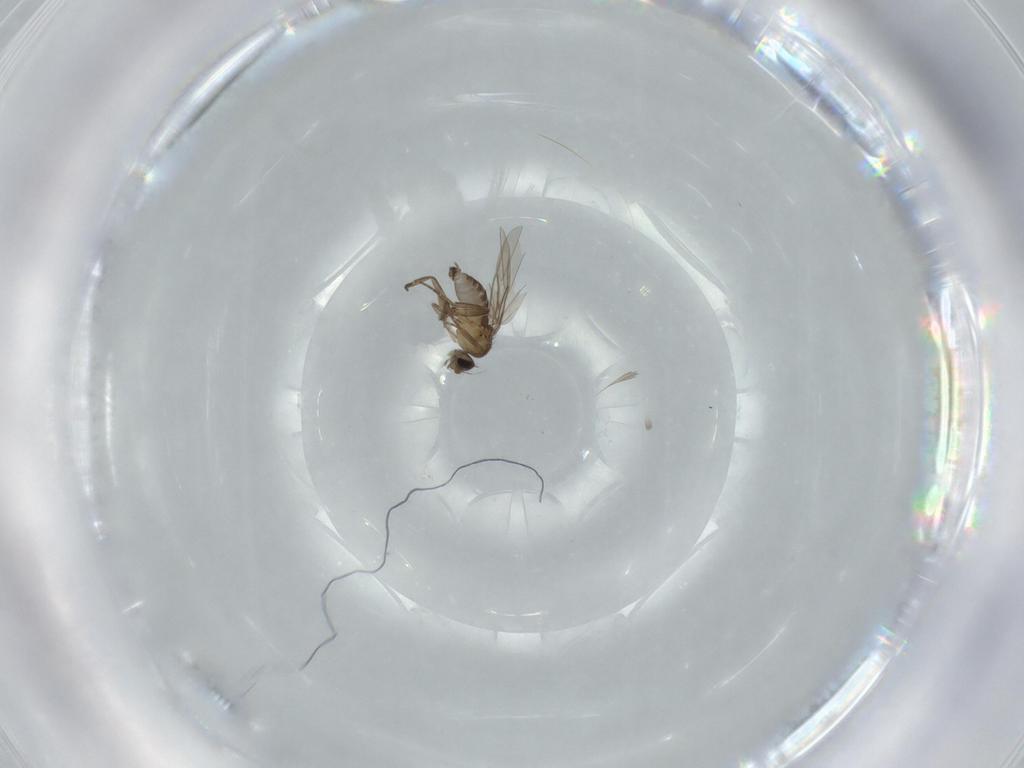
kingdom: Animalia
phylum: Arthropoda
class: Insecta
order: Diptera
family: Phoridae
